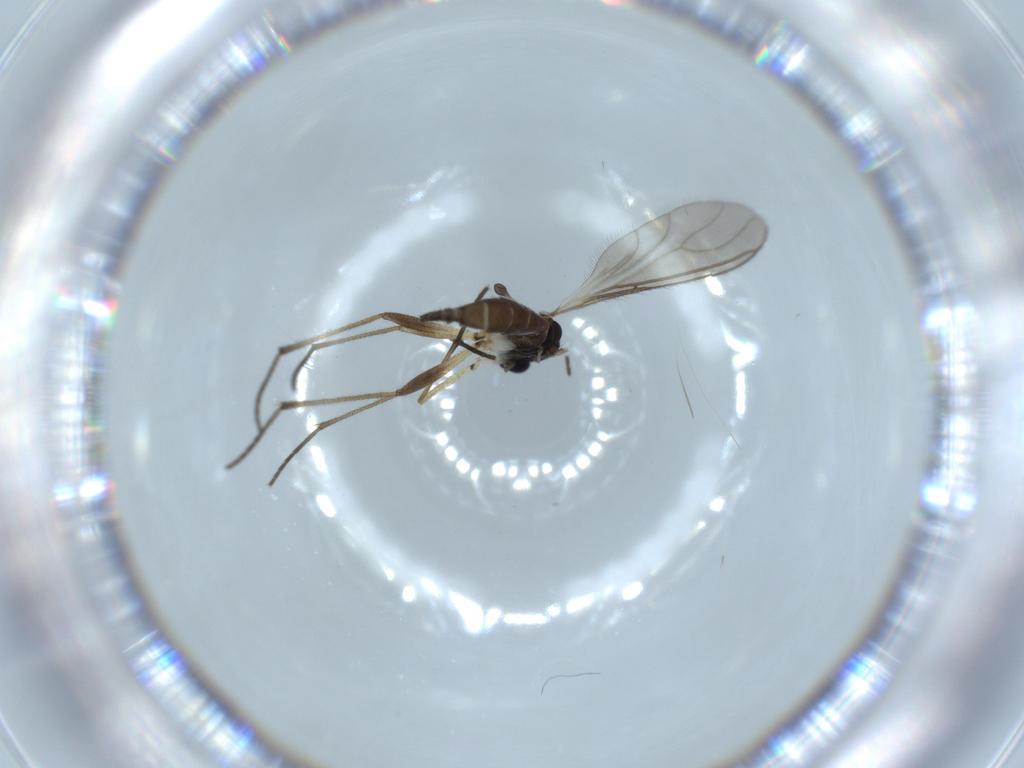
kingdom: Animalia
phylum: Arthropoda
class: Insecta
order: Diptera
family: Sciaridae
